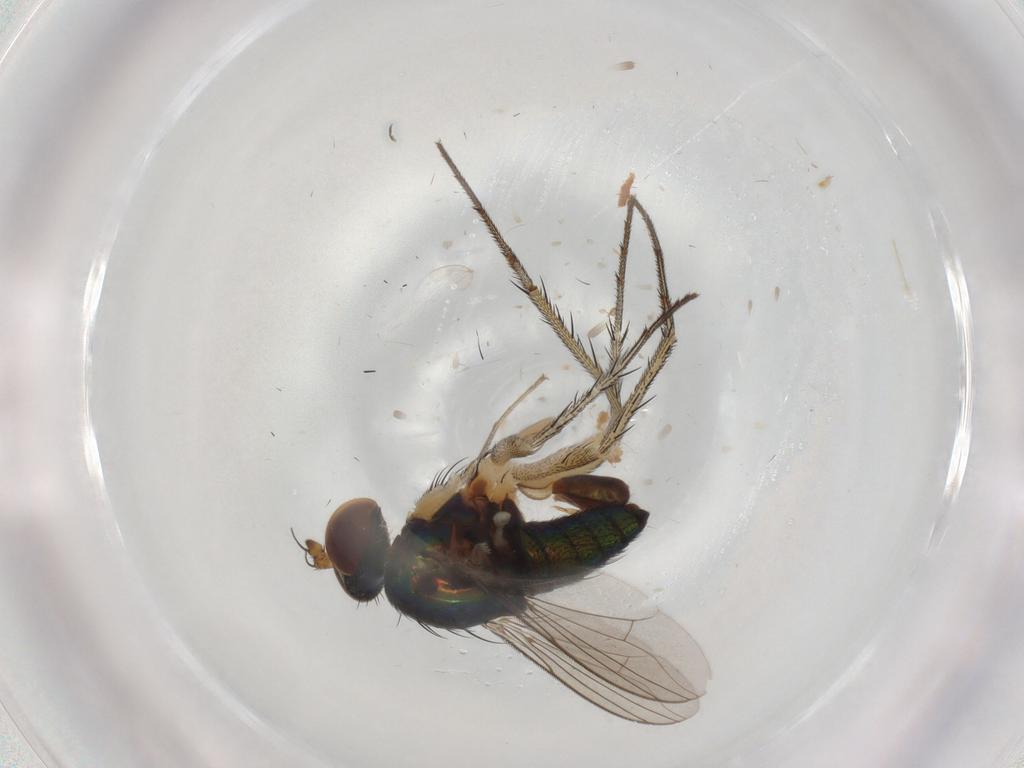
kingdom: Animalia
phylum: Arthropoda
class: Insecta
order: Diptera
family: Dolichopodidae
